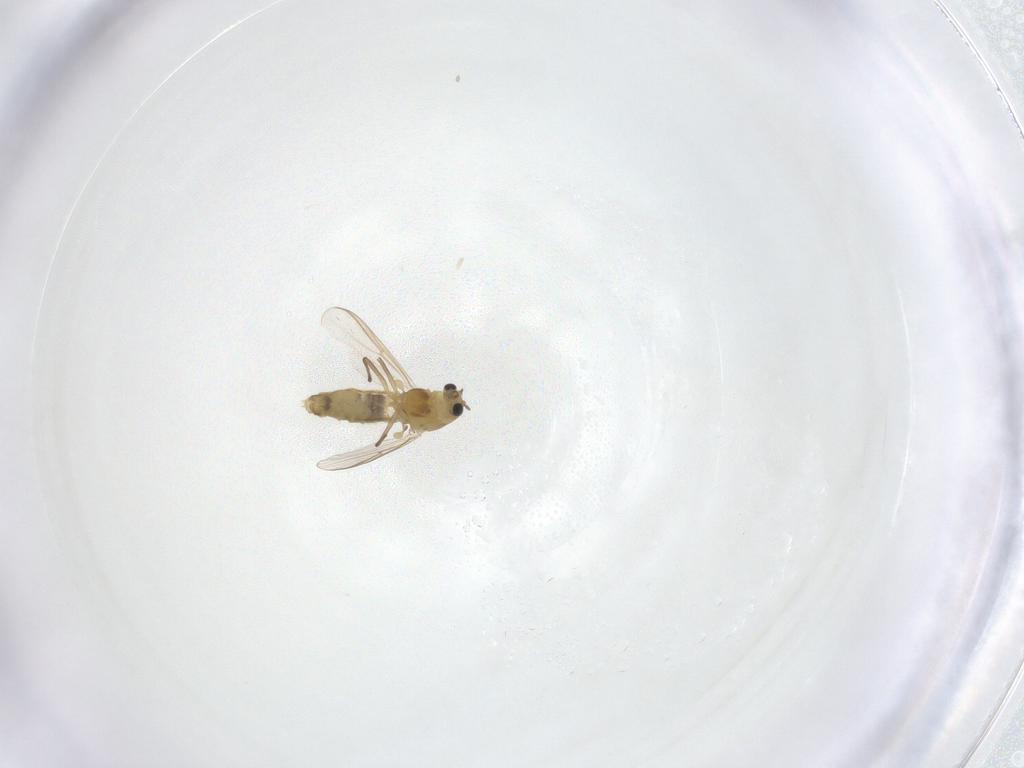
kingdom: Animalia
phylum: Arthropoda
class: Insecta
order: Diptera
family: Chironomidae
